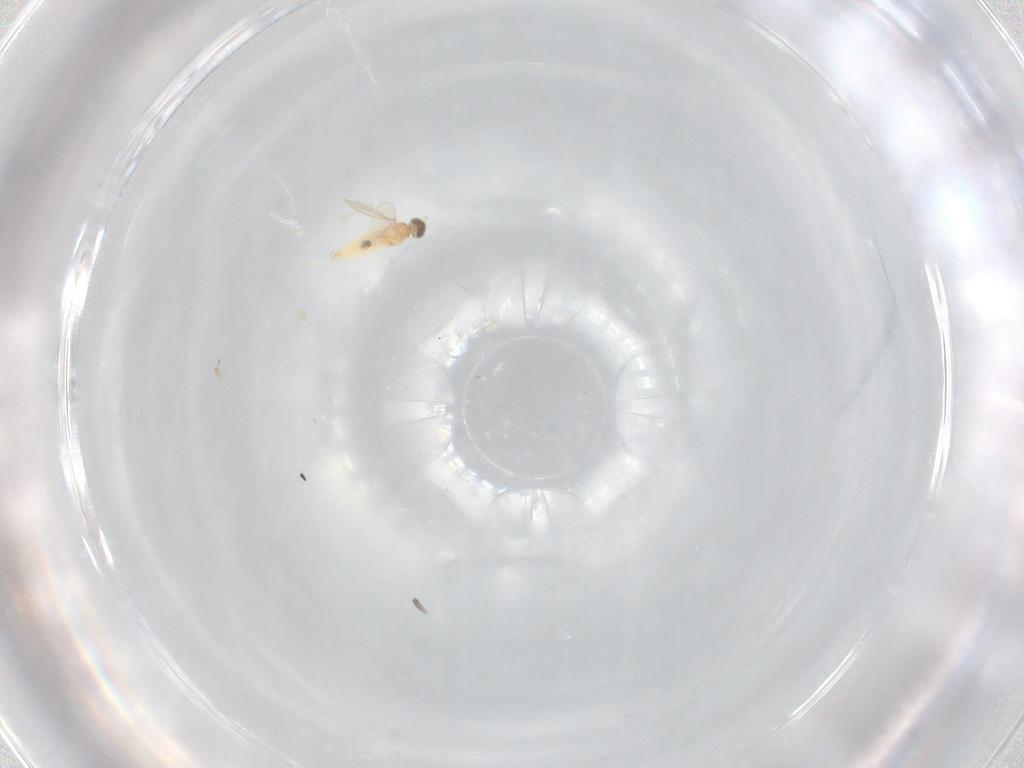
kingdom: Animalia
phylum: Arthropoda
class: Insecta
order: Diptera
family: Cecidomyiidae
